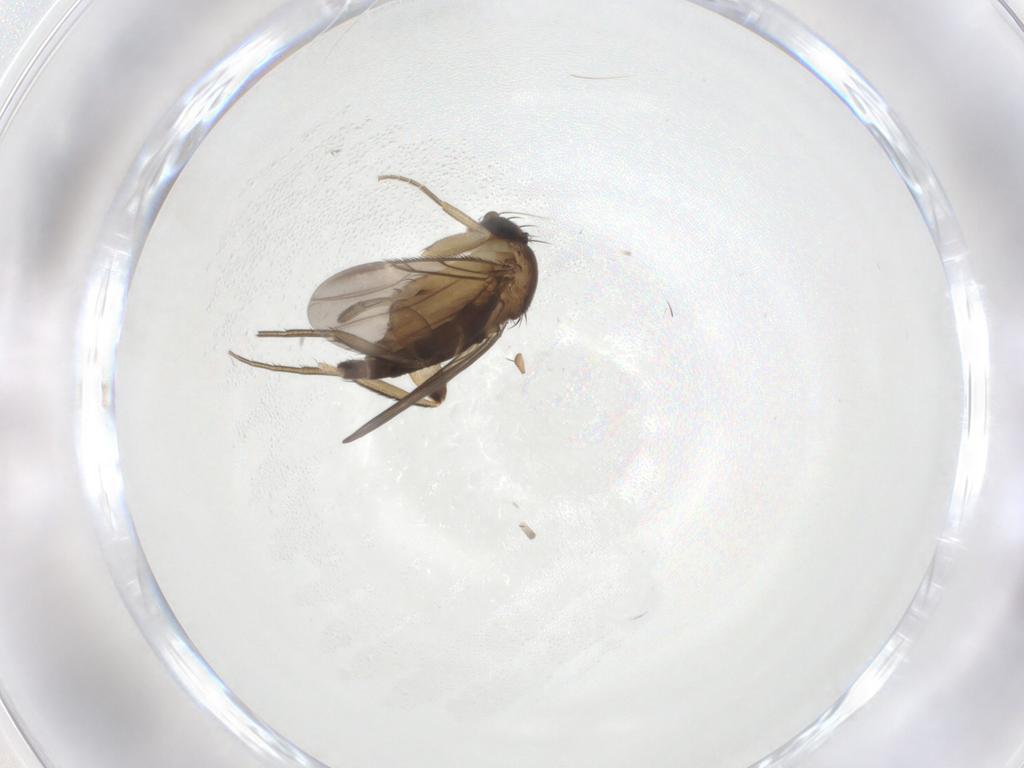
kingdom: Animalia
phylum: Arthropoda
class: Insecta
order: Diptera
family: Phoridae
